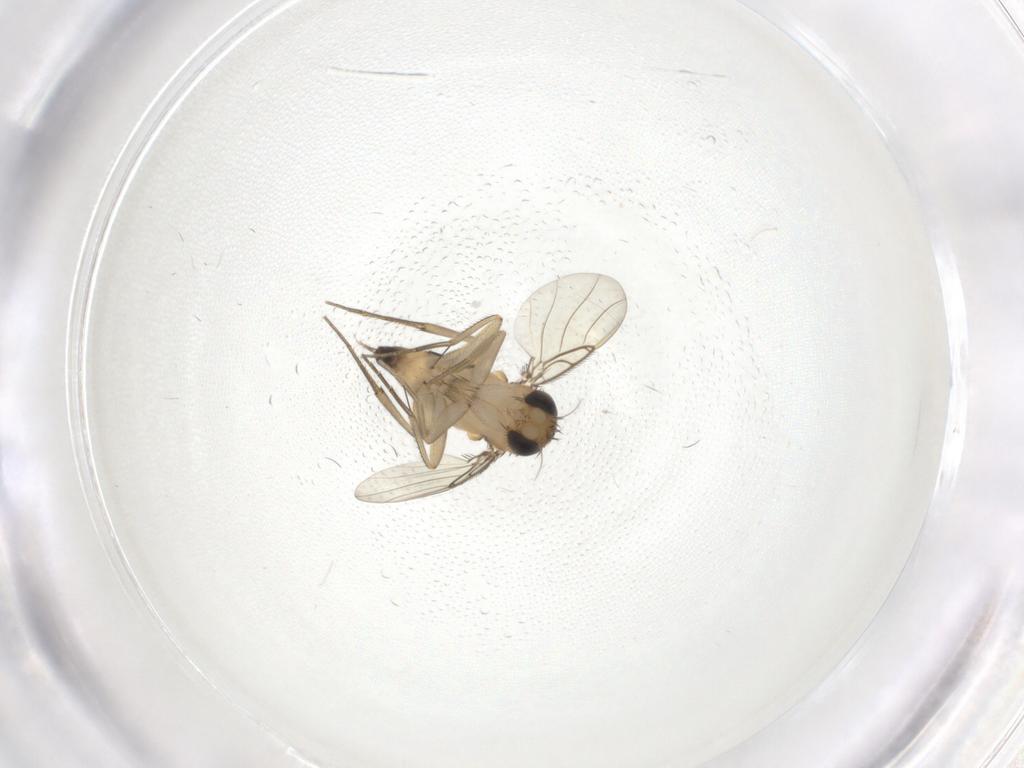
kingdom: Animalia
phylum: Arthropoda
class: Insecta
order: Diptera
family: Phoridae
